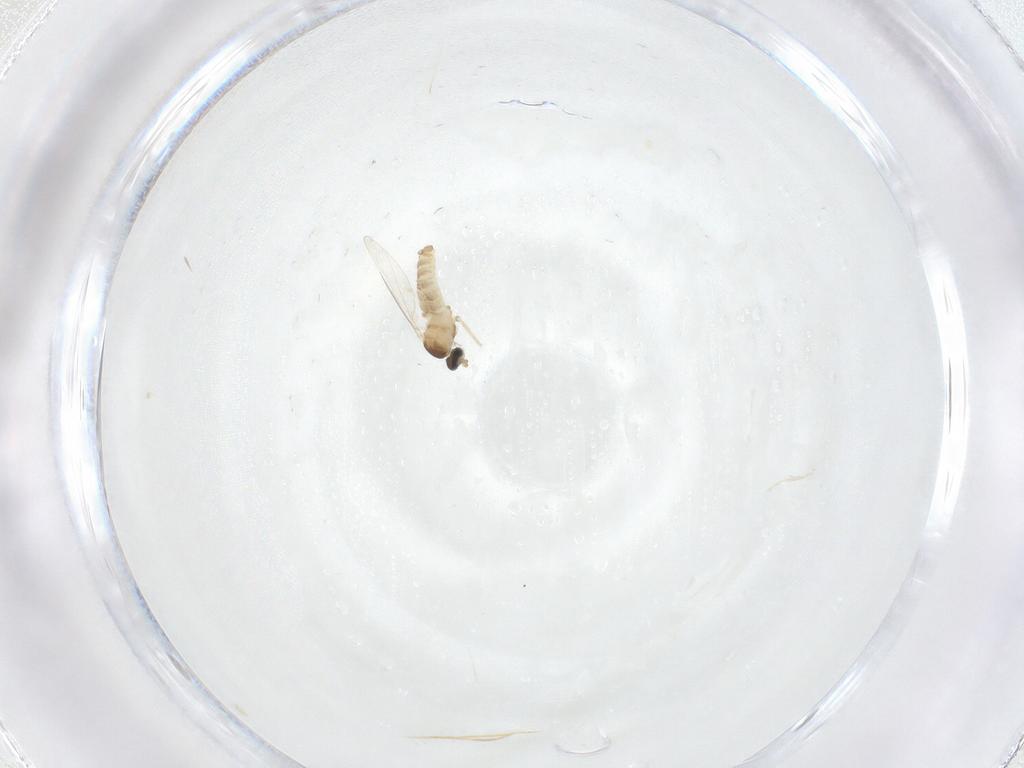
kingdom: Animalia
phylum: Arthropoda
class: Insecta
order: Diptera
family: Cecidomyiidae
